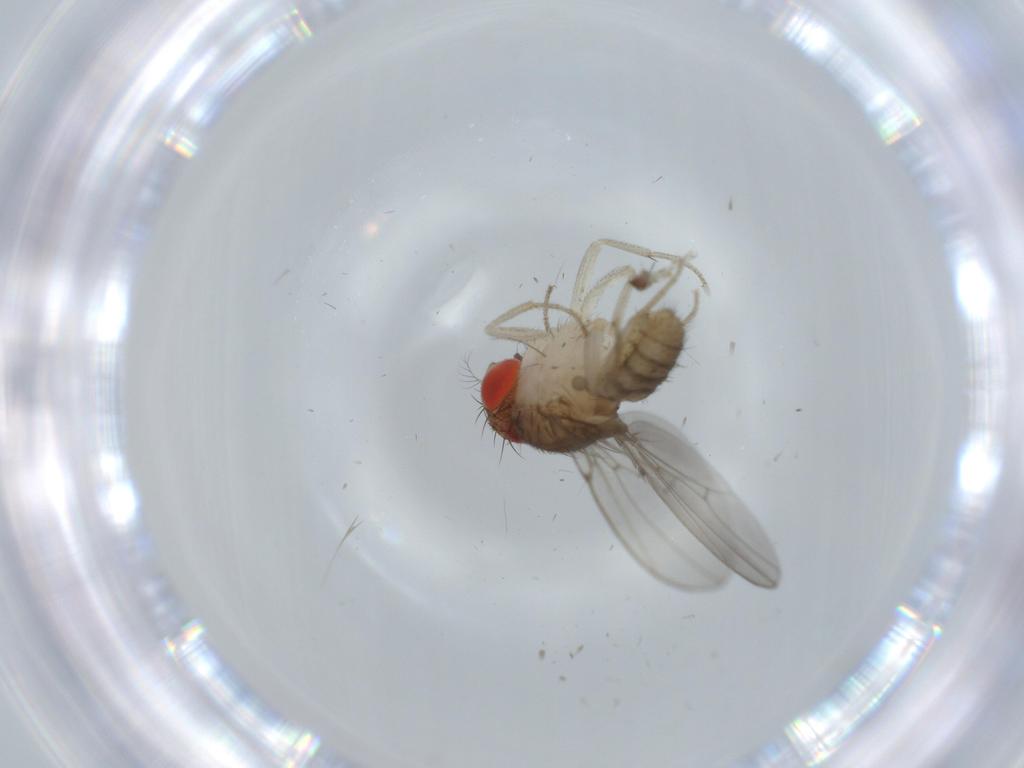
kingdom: Animalia
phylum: Arthropoda
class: Insecta
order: Diptera
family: Drosophilidae
